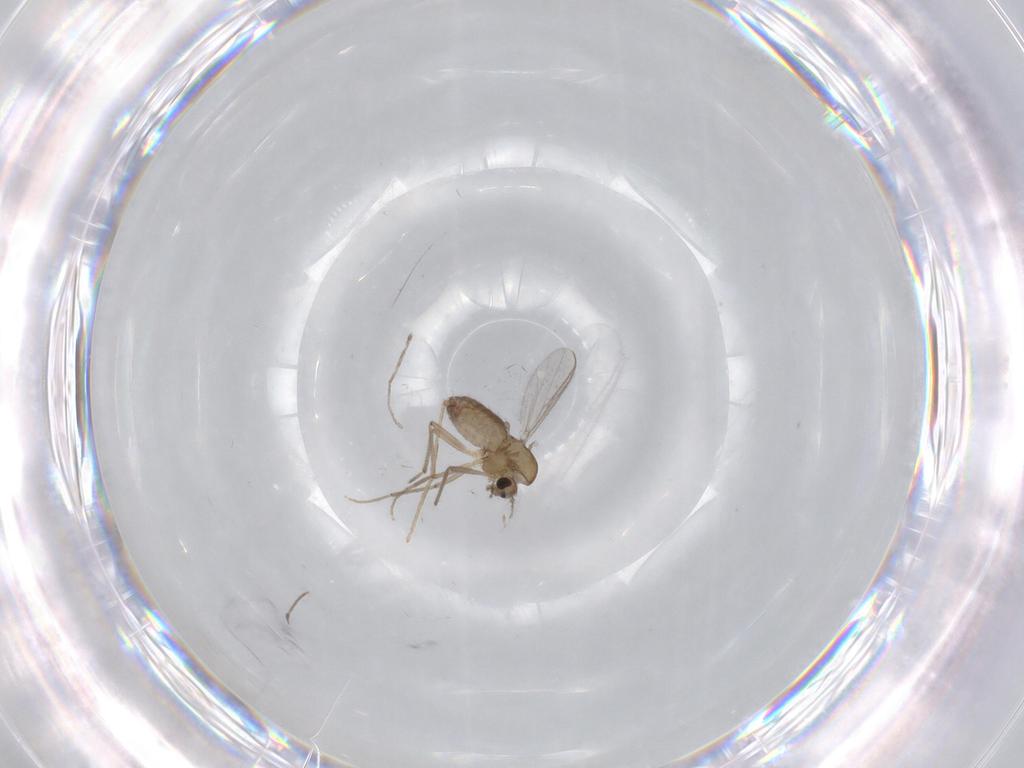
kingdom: Animalia
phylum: Arthropoda
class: Insecta
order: Diptera
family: Chironomidae
